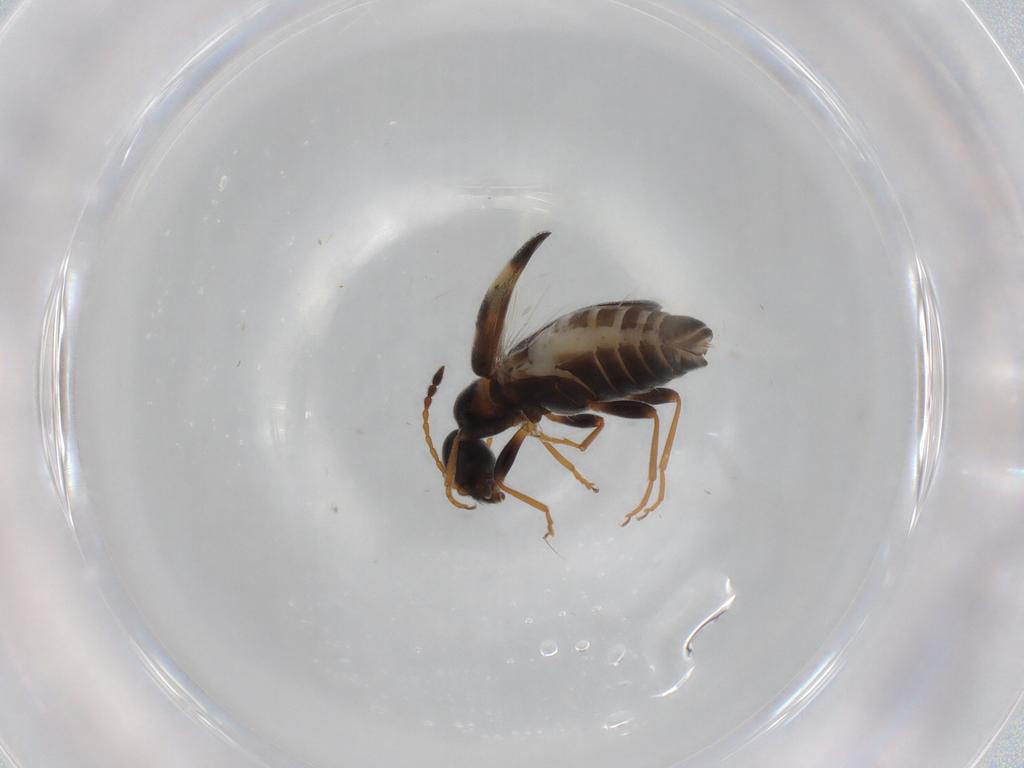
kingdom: Animalia
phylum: Arthropoda
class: Insecta
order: Coleoptera
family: Anthicidae
